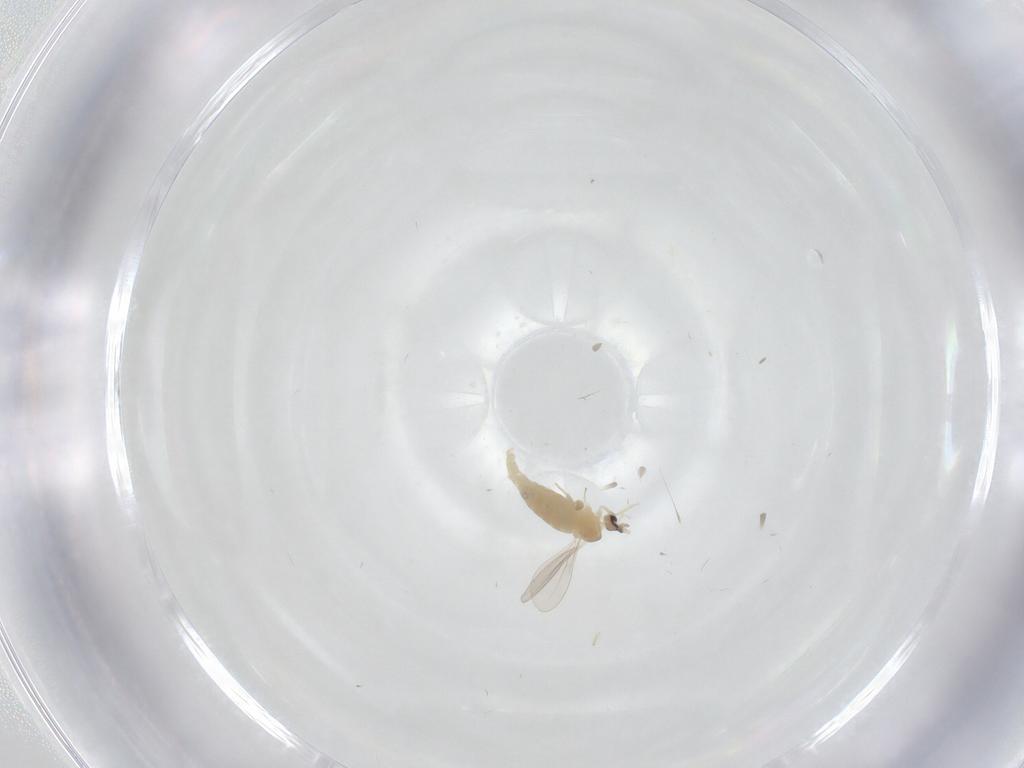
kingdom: Animalia
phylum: Arthropoda
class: Insecta
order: Diptera
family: Cecidomyiidae
